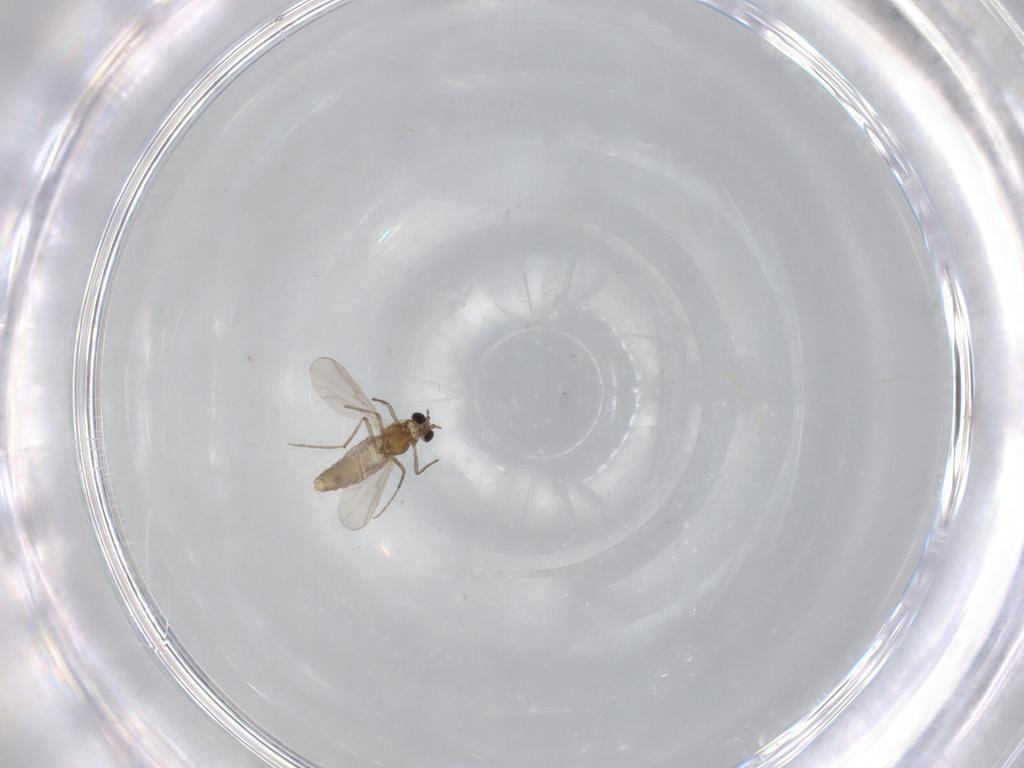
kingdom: Animalia
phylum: Arthropoda
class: Insecta
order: Diptera
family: Chironomidae
